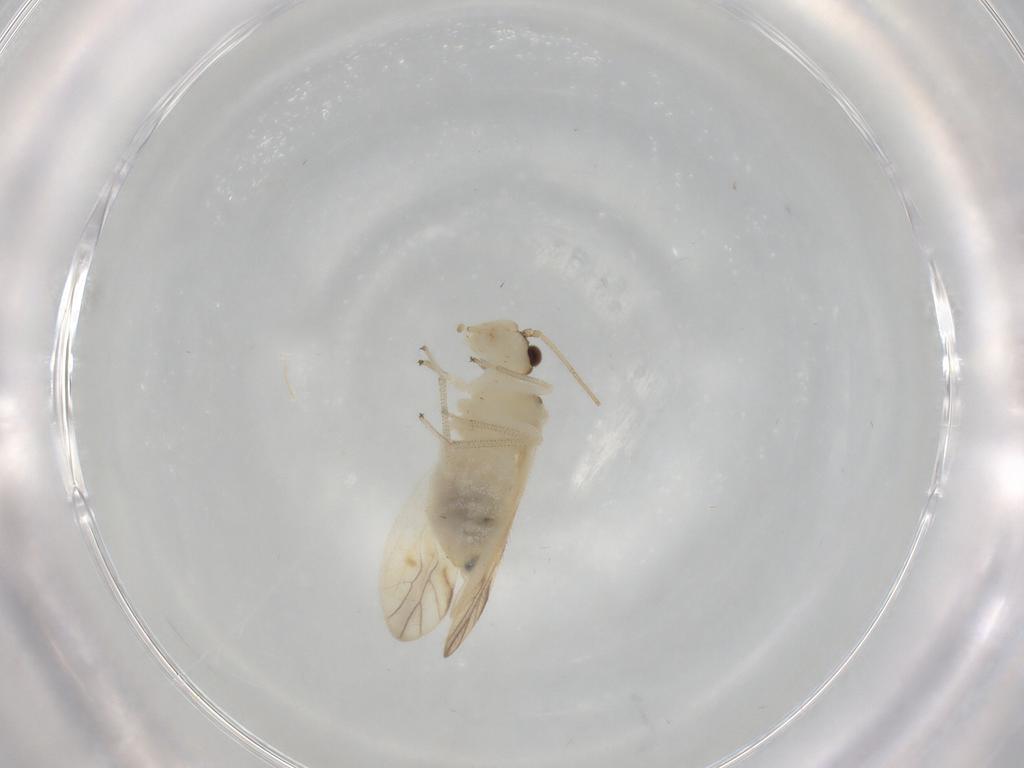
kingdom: Animalia
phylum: Arthropoda
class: Insecta
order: Psocodea
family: Caeciliusidae
